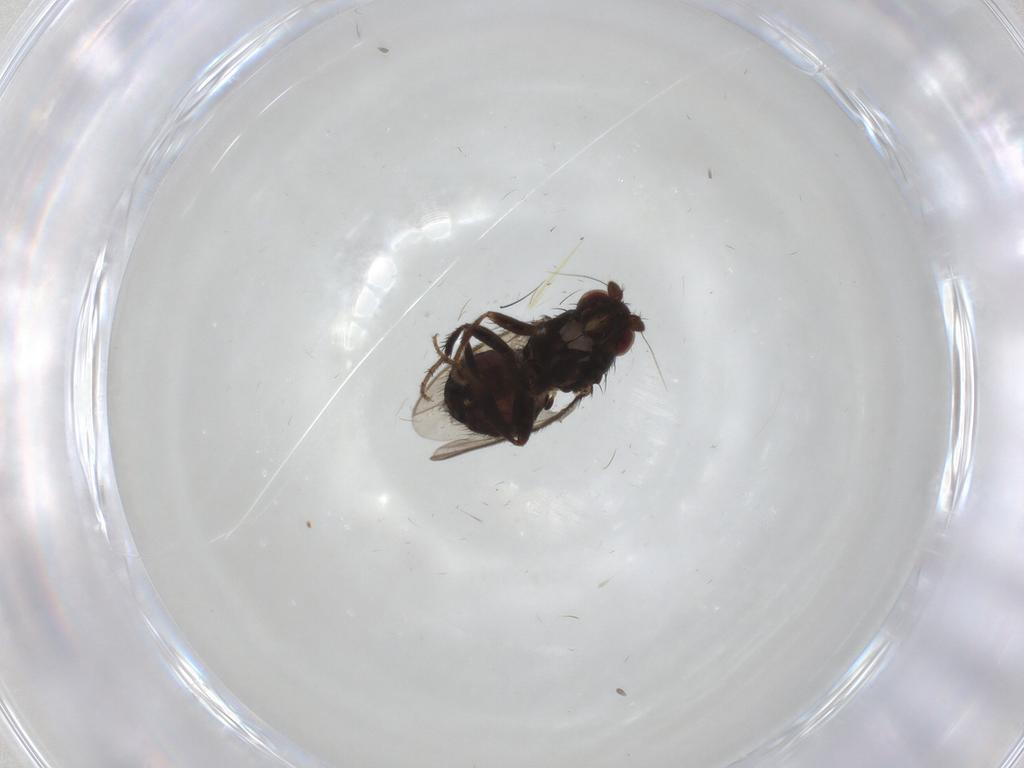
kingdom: Animalia
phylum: Arthropoda
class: Insecta
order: Diptera
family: Sphaeroceridae
